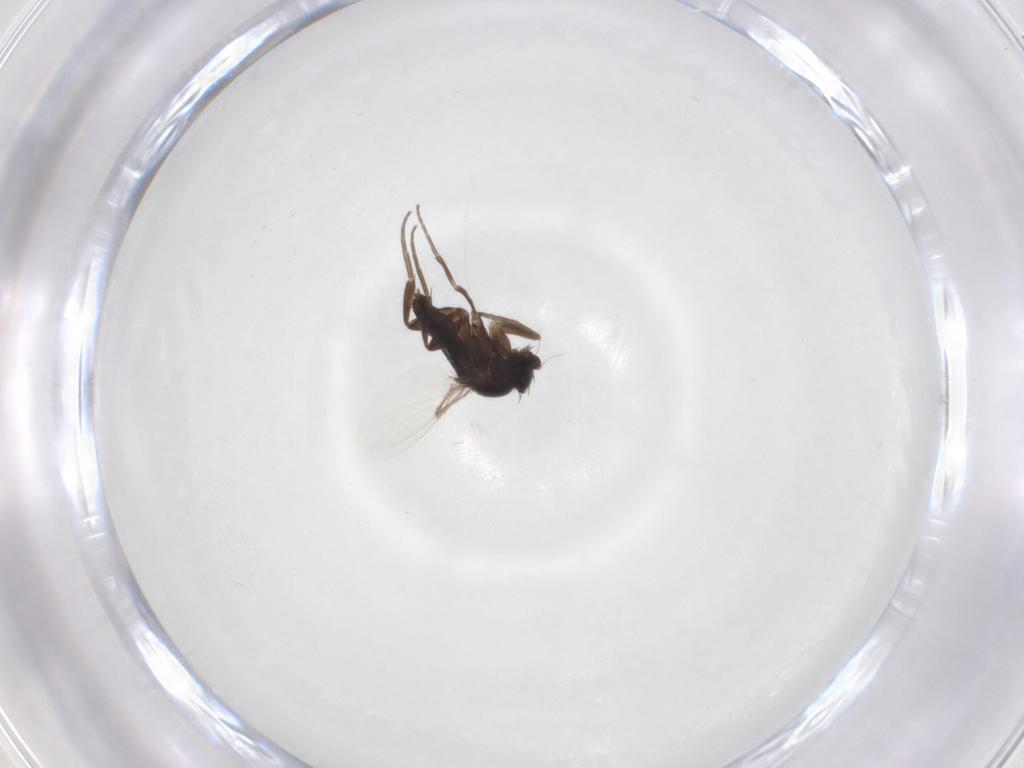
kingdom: Animalia
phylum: Arthropoda
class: Insecta
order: Diptera
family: Phoridae
